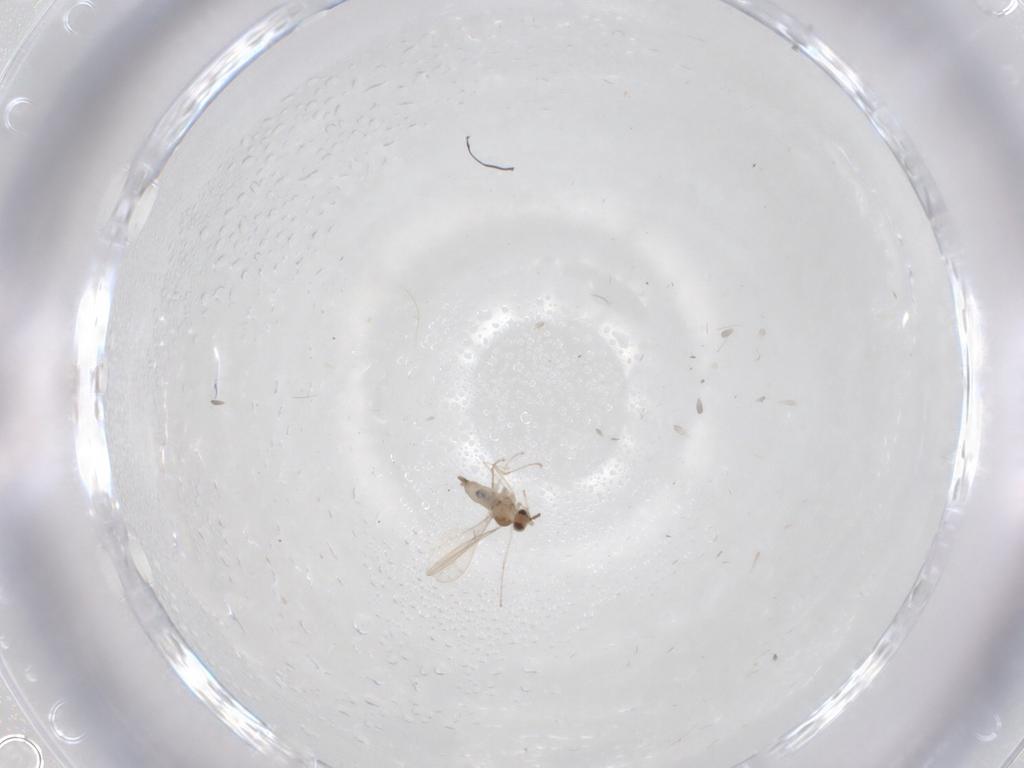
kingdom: Animalia
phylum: Arthropoda
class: Insecta
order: Diptera
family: Cecidomyiidae
